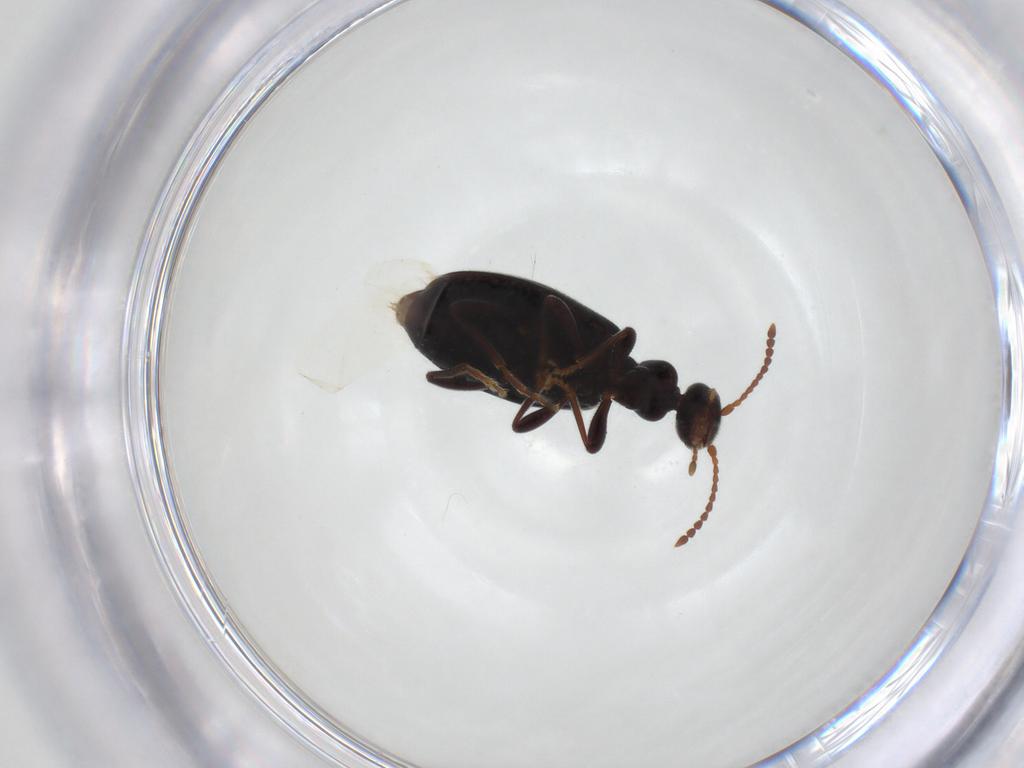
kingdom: Animalia
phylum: Arthropoda
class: Insecta
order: Coleoptera
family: Anthicidae
